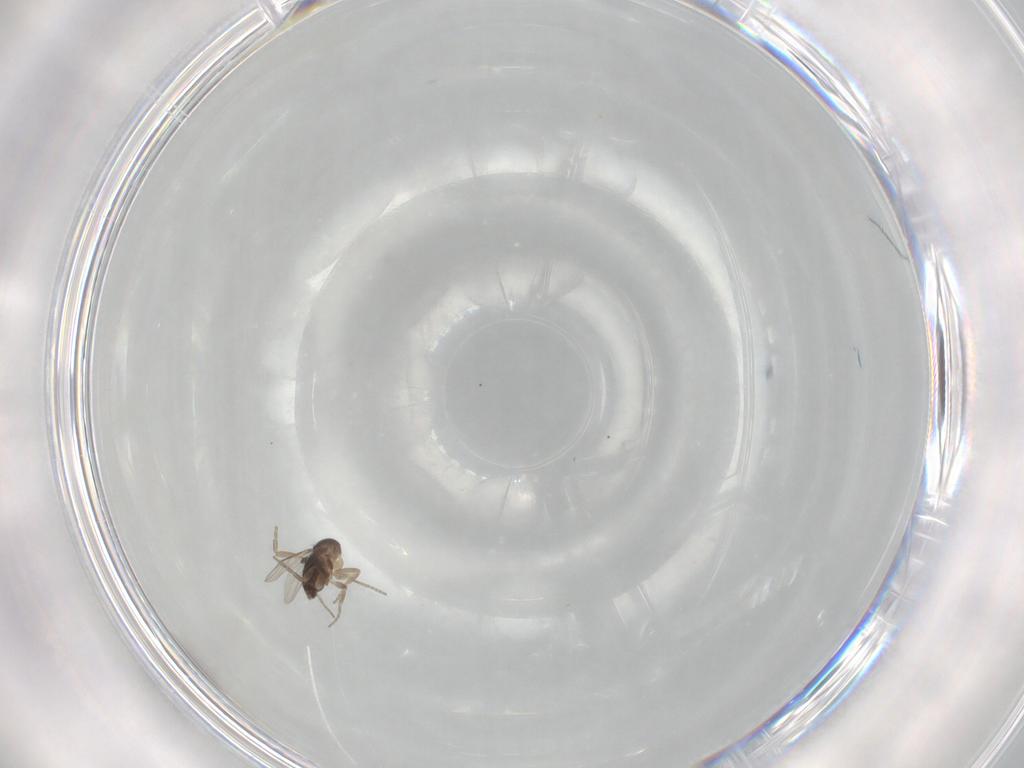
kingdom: Animalia
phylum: Arthropoda
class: Insecta
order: Diptera
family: Phoridae
